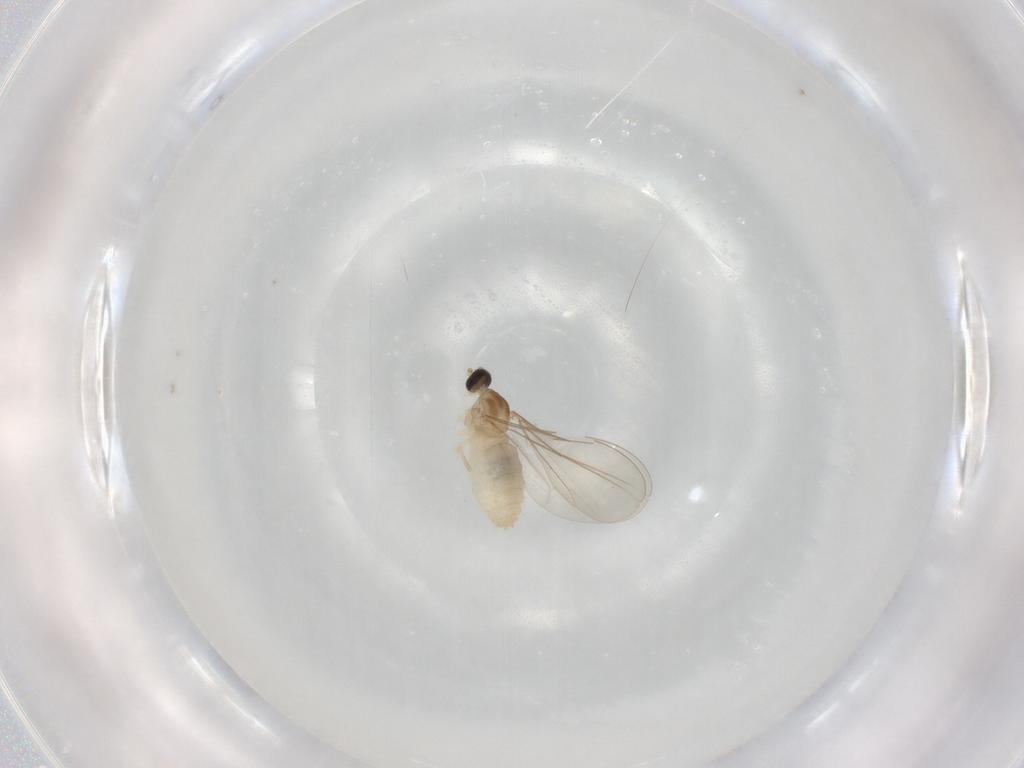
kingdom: Animalia
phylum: Arthropoda
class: Insecta
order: Diptera
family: Cecidomyiidae
